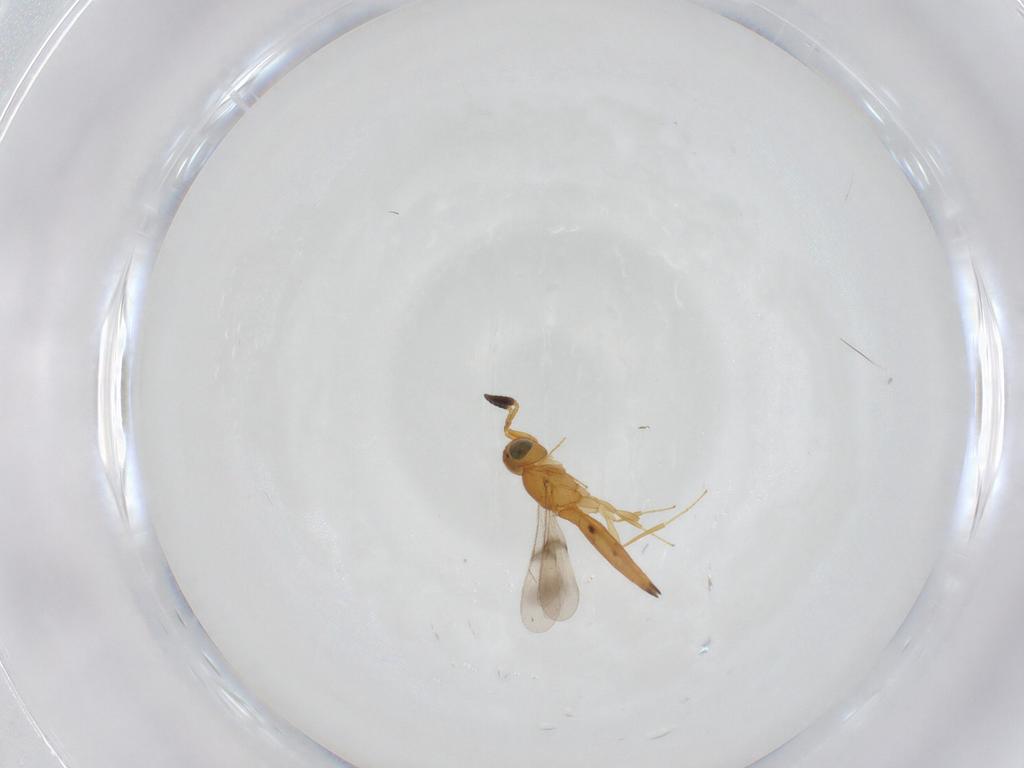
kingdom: Animalia
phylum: Arthropoda
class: Insecta
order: Hymenoptera
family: Scelionidae
